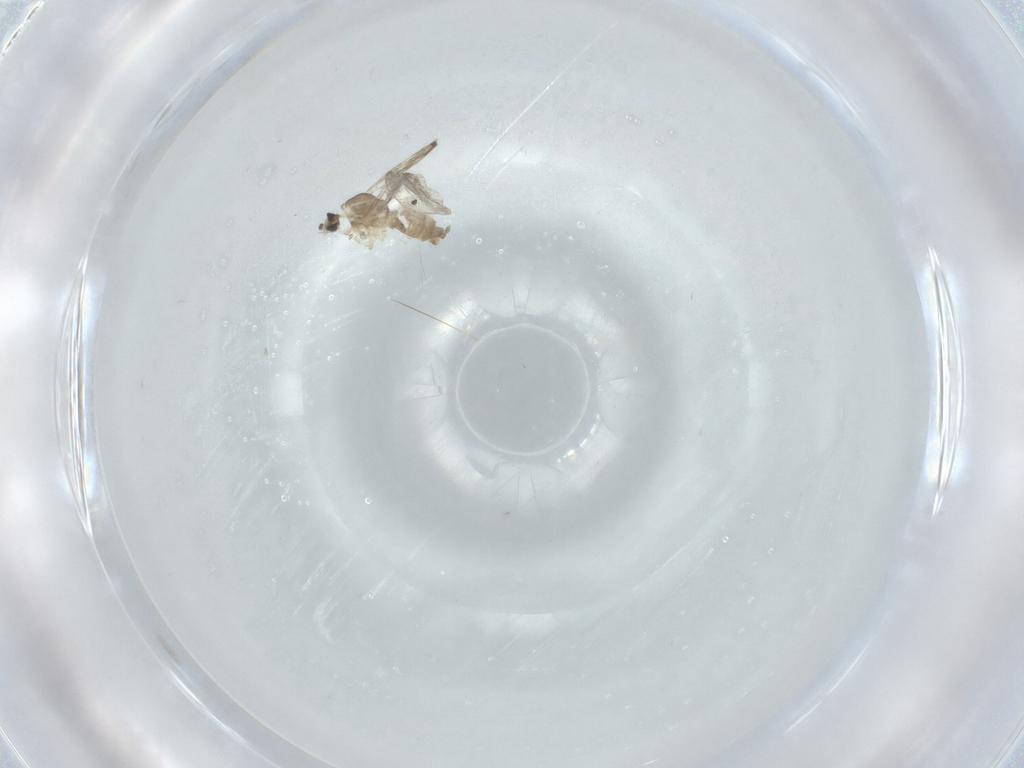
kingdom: Animalia
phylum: Arthropoda
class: Insecta
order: Diptera
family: Cecidomyiidae
